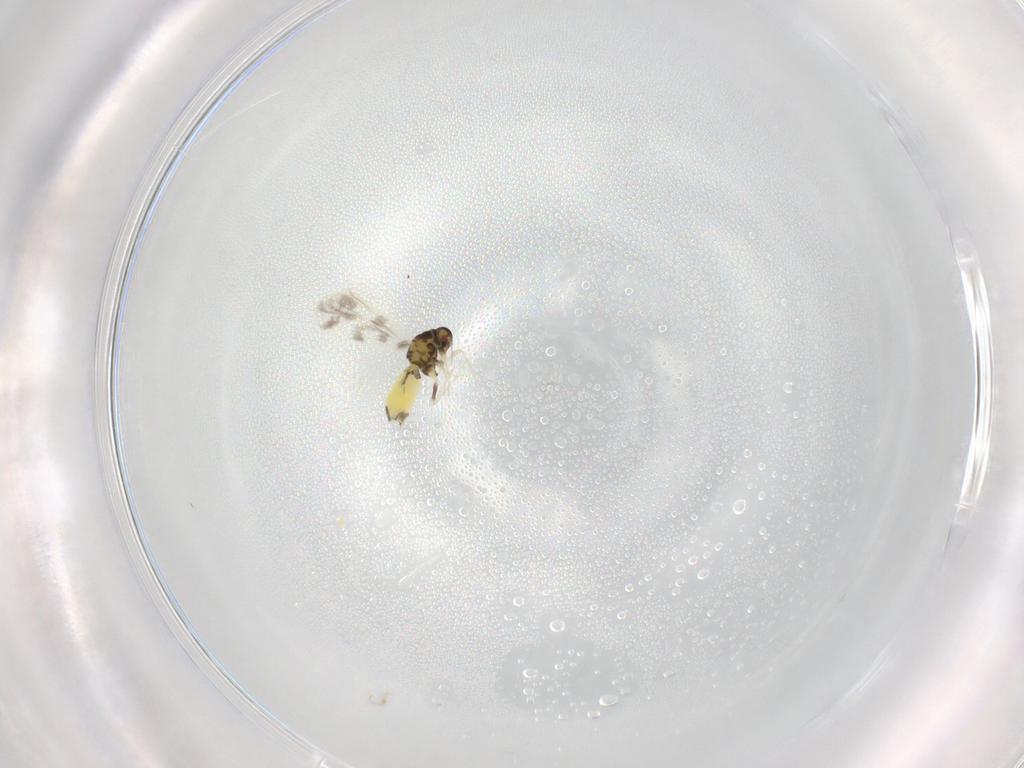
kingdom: Animalia
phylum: Arthropoda
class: Insecta
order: Hemiptera
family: Aleyrodidae
